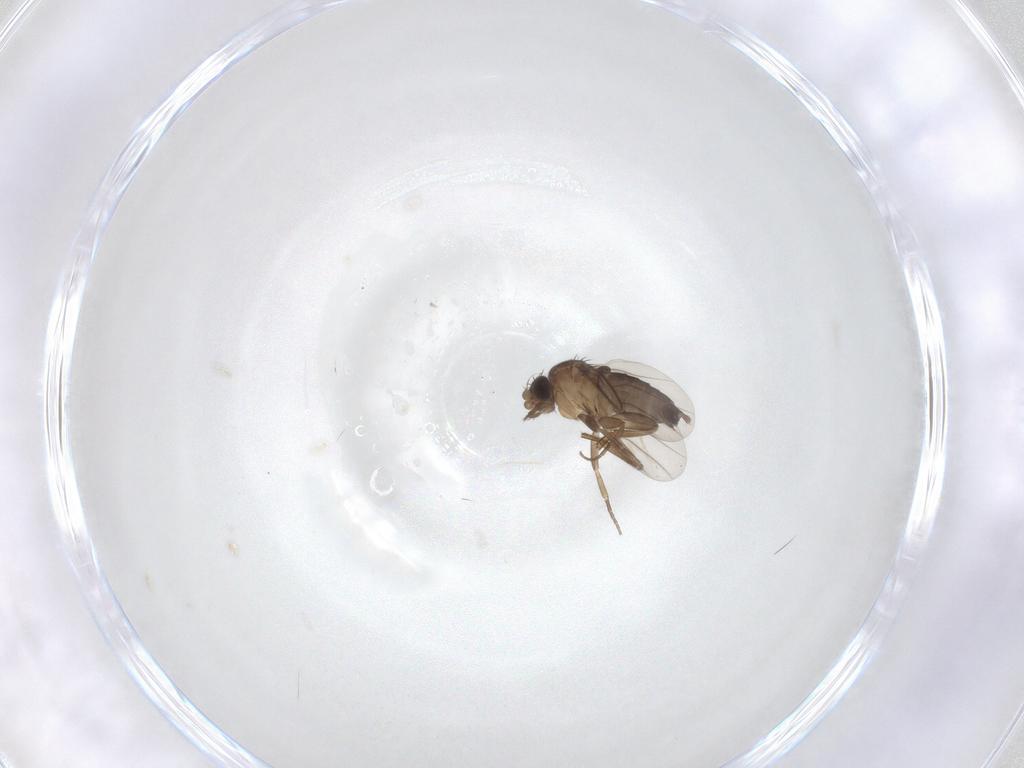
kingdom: Animalia
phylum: Arthropoda
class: Insecta
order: Diptera
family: Phoridae
